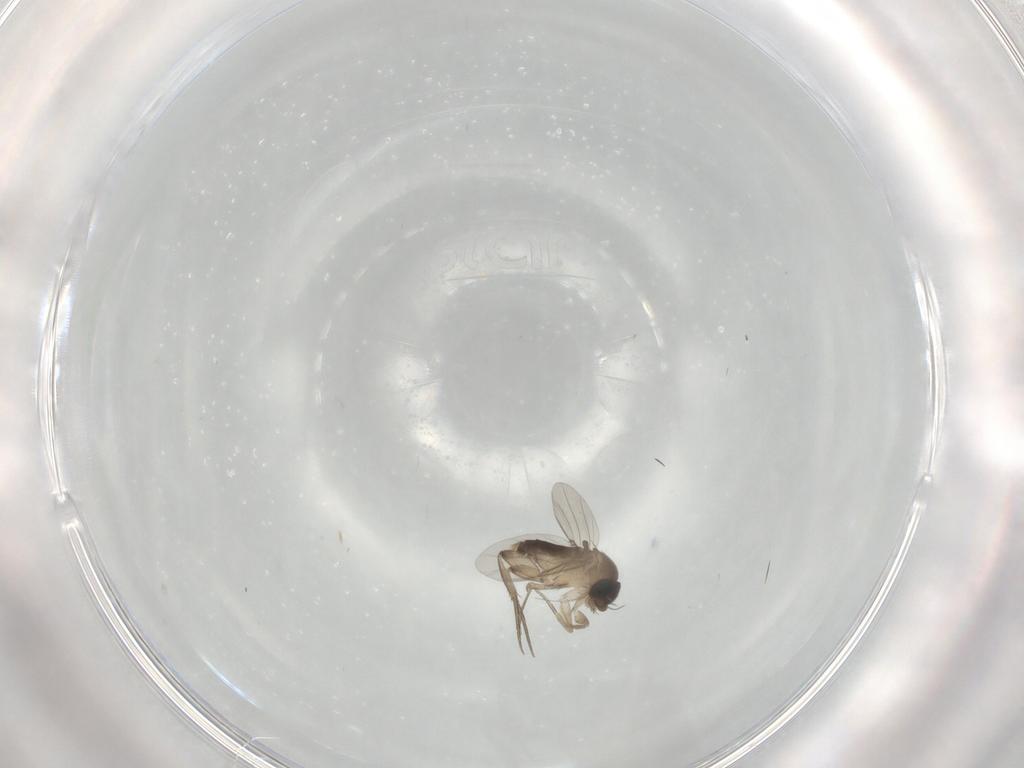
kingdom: Animalia
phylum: Arthropoda
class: Insecta
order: Diptera
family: Phoridae
